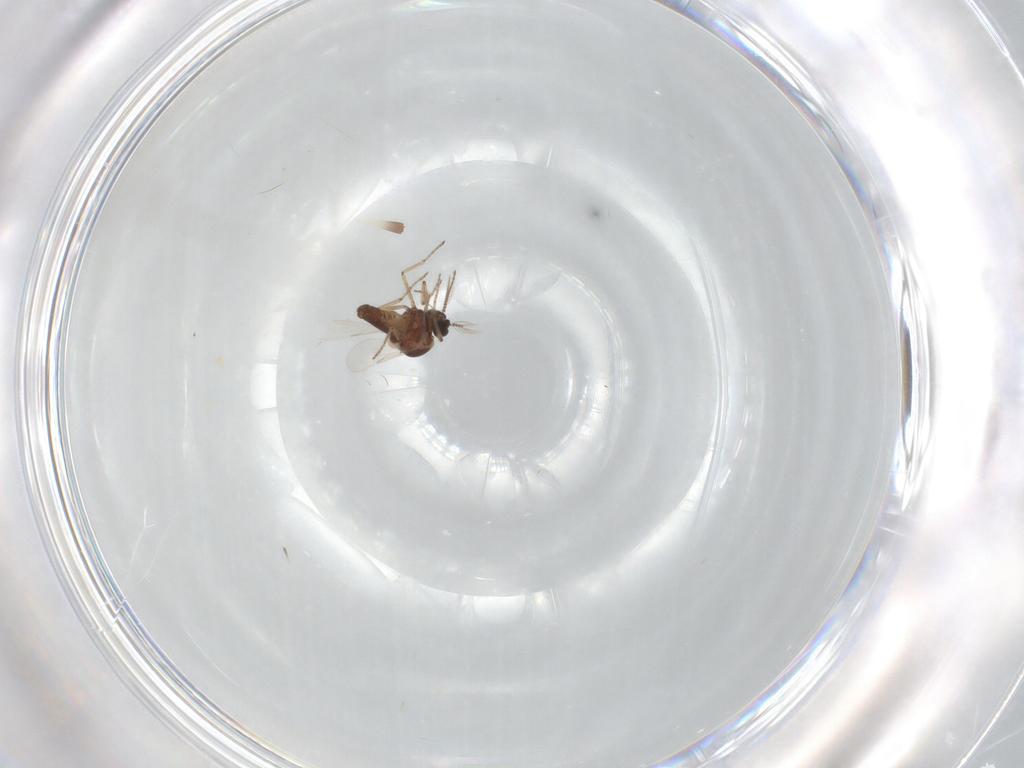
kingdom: Animalia
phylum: Arthropoda
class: Insecta
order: Diptera
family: Ceratopogonidae
